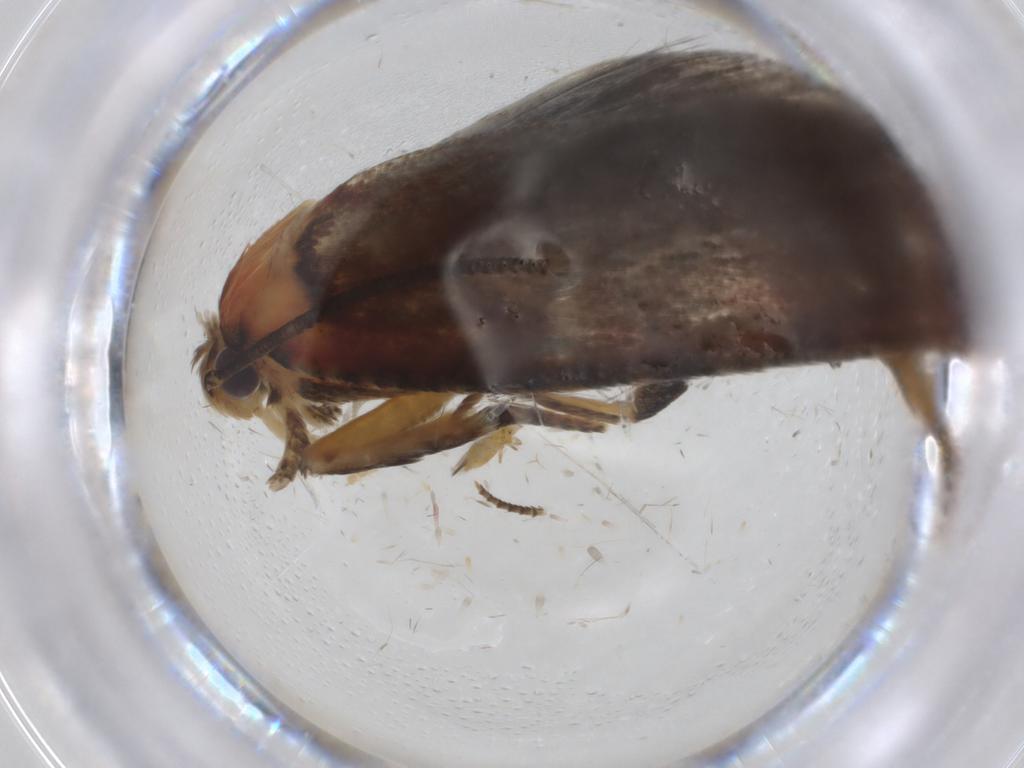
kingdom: Animalia
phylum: Arthropoda
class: Insecta
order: Lepidoptera
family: Depressariidae
